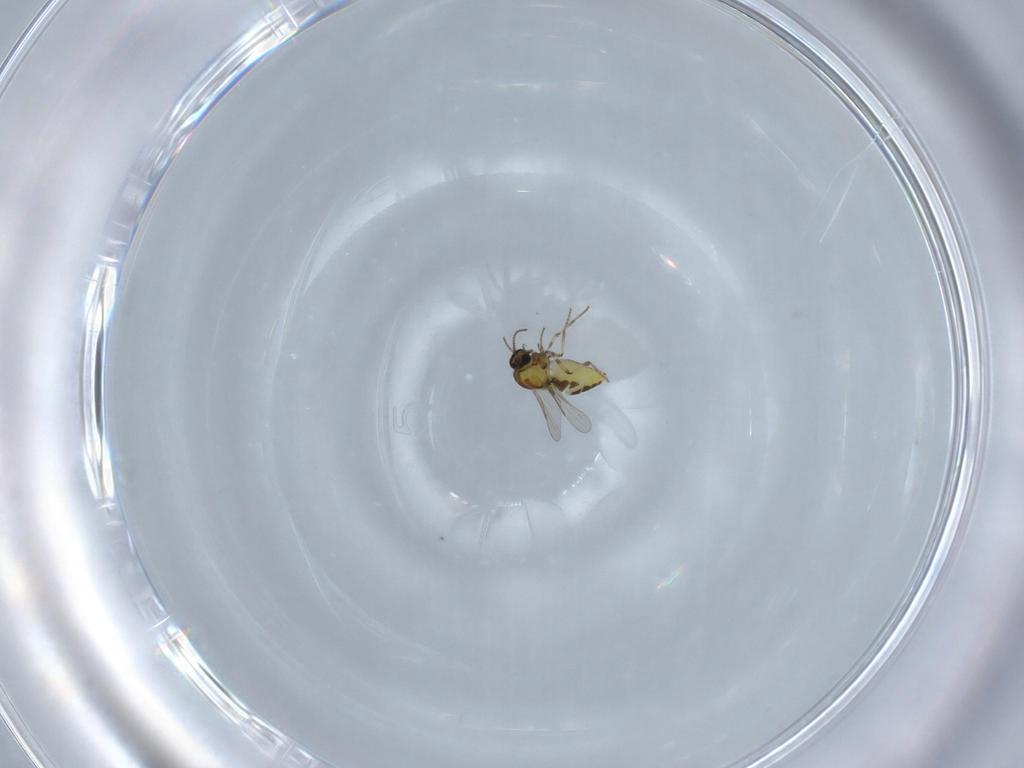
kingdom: Animalia
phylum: Arthropoda
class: Insecta
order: Diptera
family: Ceratopogonidae
